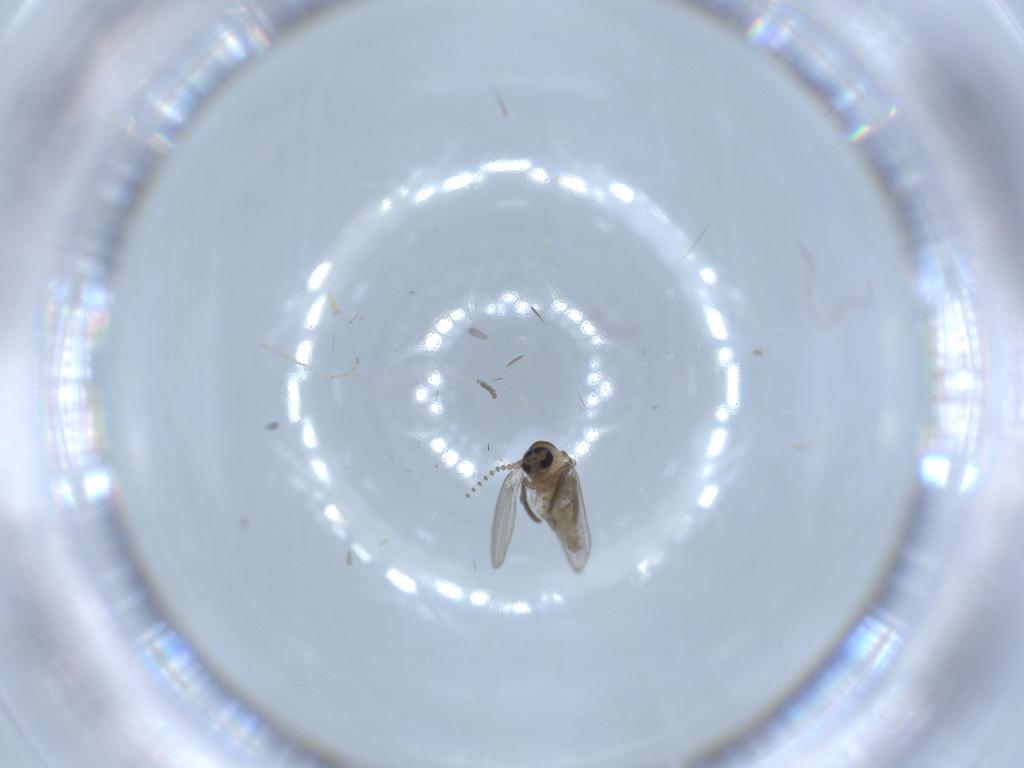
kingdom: Animalia
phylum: Arthropoda
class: Insecta
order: Diptera
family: Psychodidae
